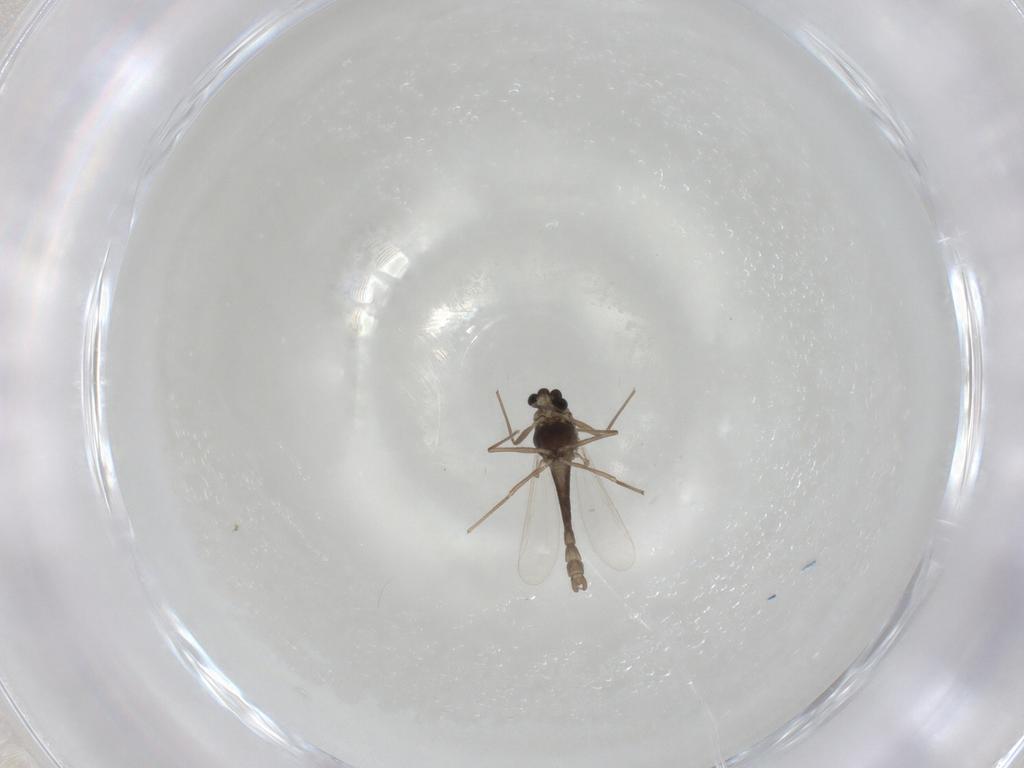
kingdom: Animalia
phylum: Arthropoda
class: Insecta
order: Diptera
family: Chironomidae
